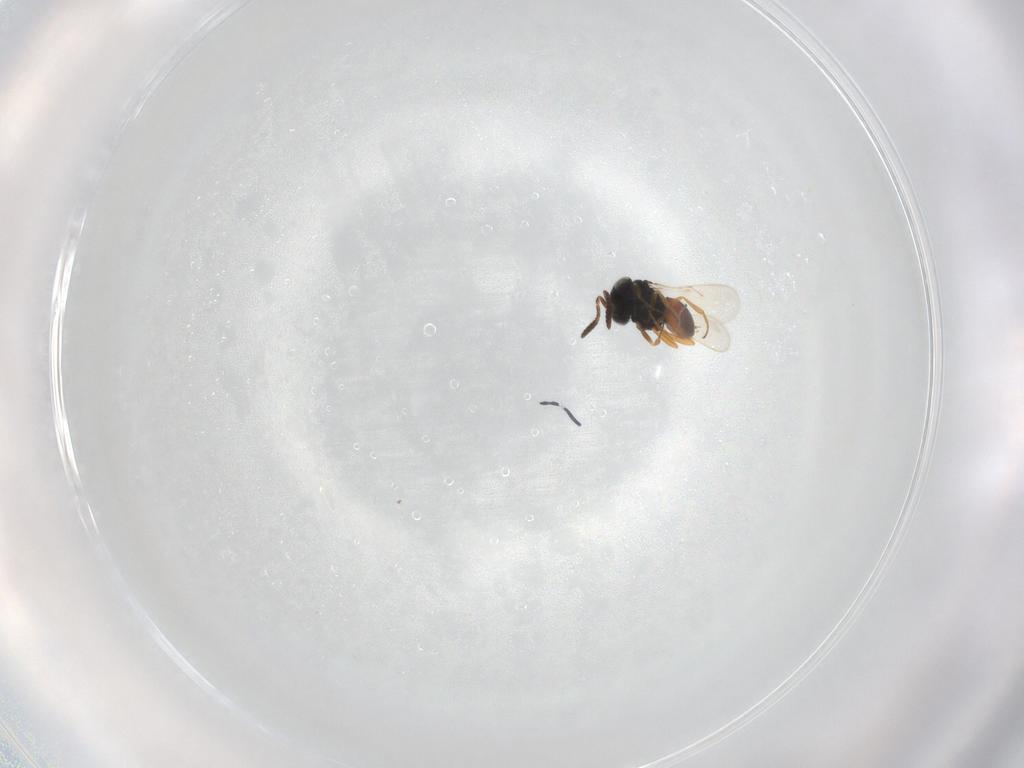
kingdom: Animalia
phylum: Arthropoda
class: Insecta
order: Hymenoptera
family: Scelionidae
